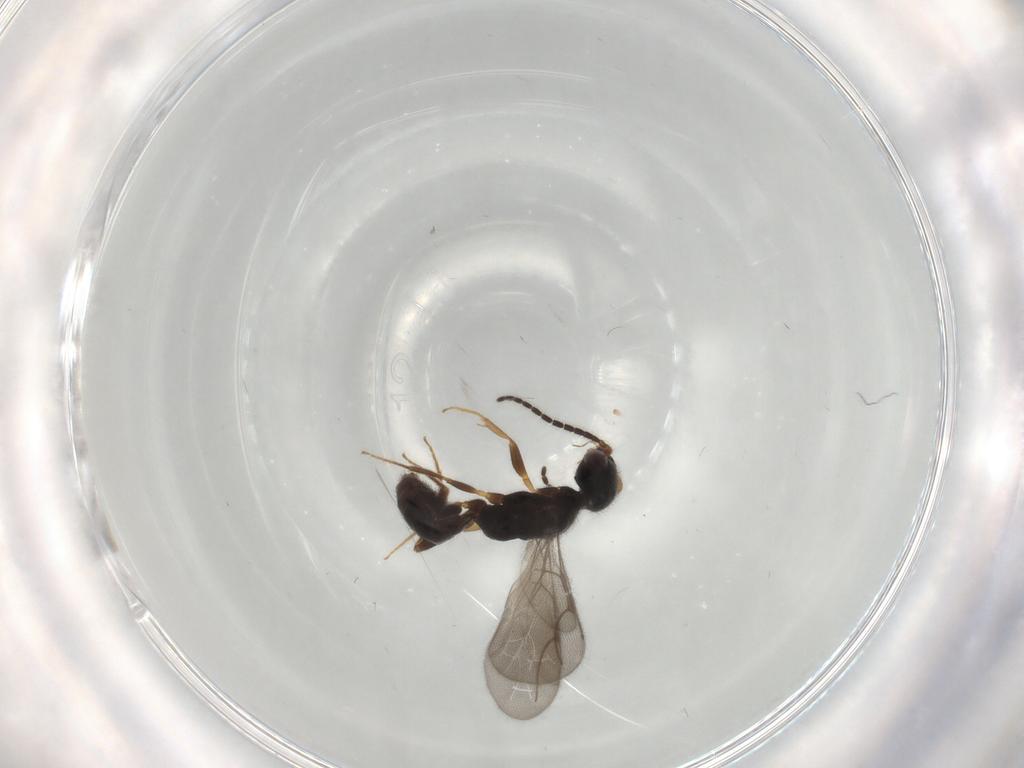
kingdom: Animalia
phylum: Arthropoda
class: Insecta
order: Hymenoptera
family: Bethylidae
